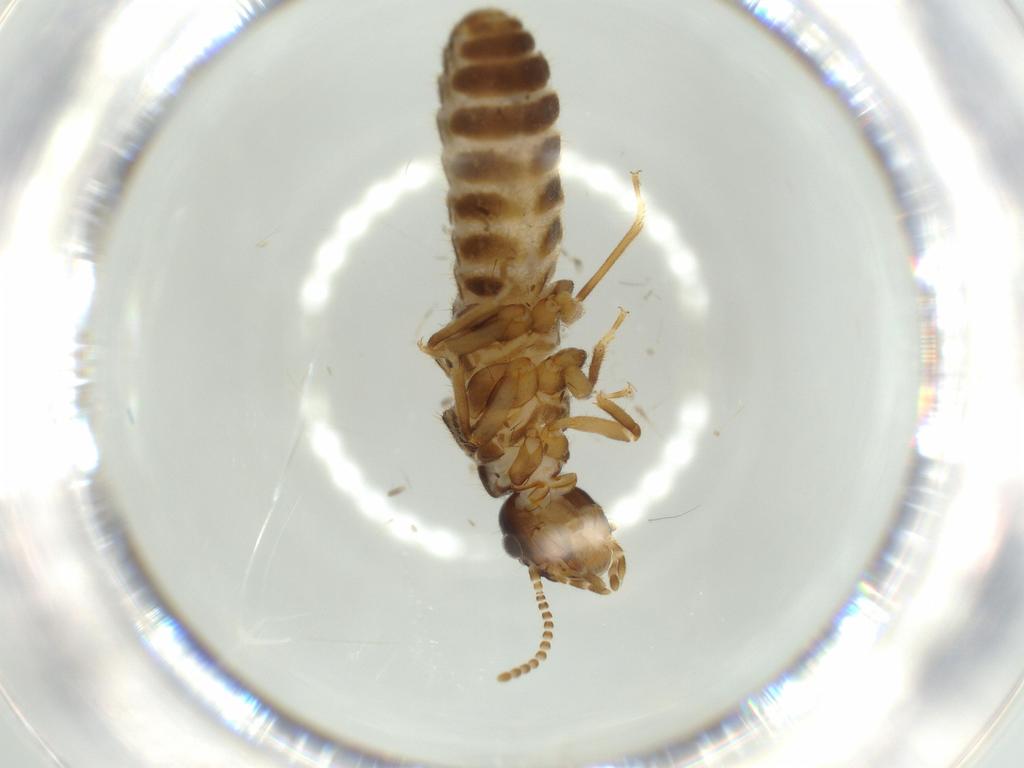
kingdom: Animalia
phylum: Arthropoda
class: Insecta
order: Blattodea
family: Termitidae
